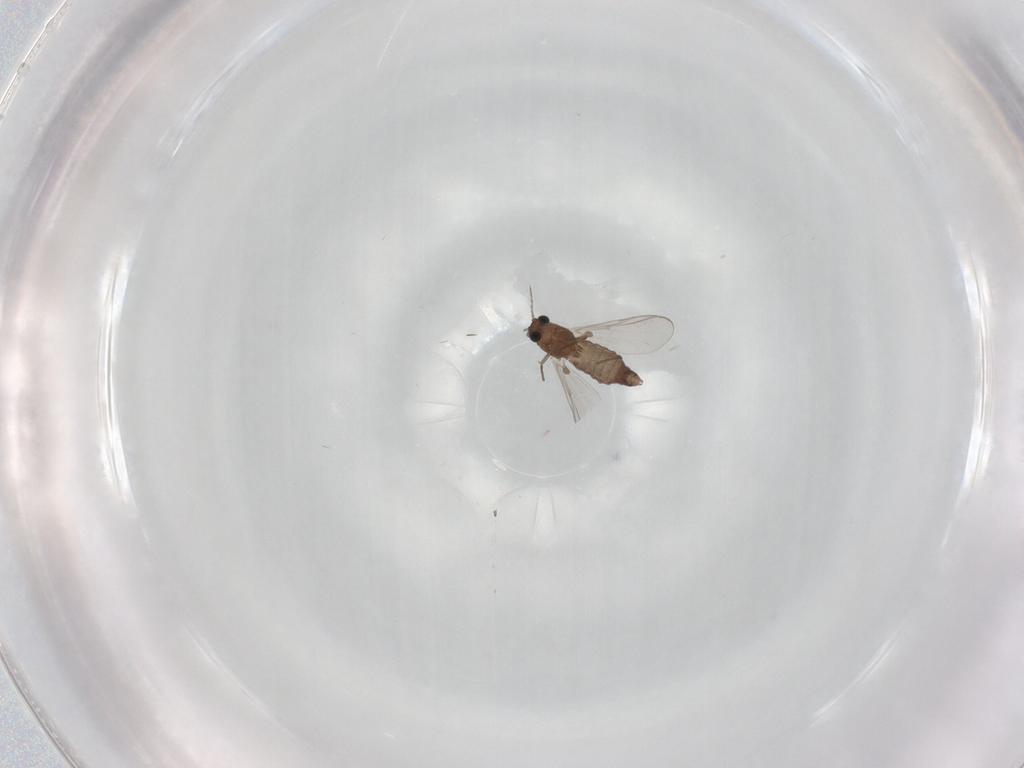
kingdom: Animalia
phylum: Arthropoda
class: Insecta
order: Diptera
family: Chironomidae
